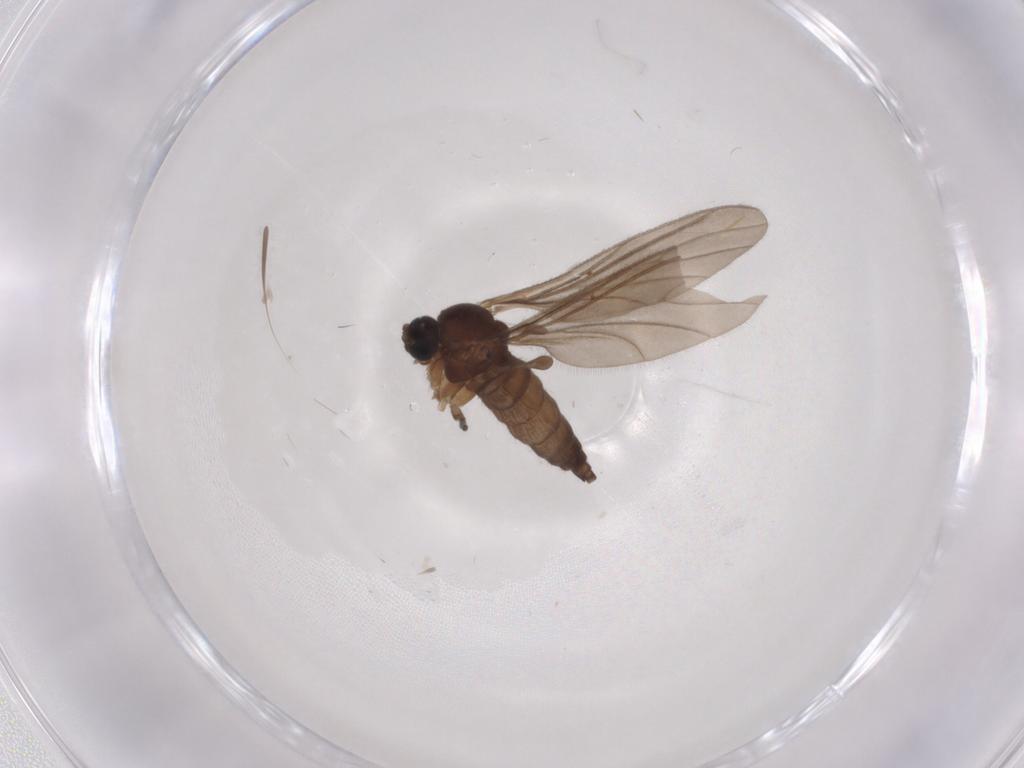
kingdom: Animalia
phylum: Arthropoda
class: Insecta
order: Diptera
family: Sciaridae
